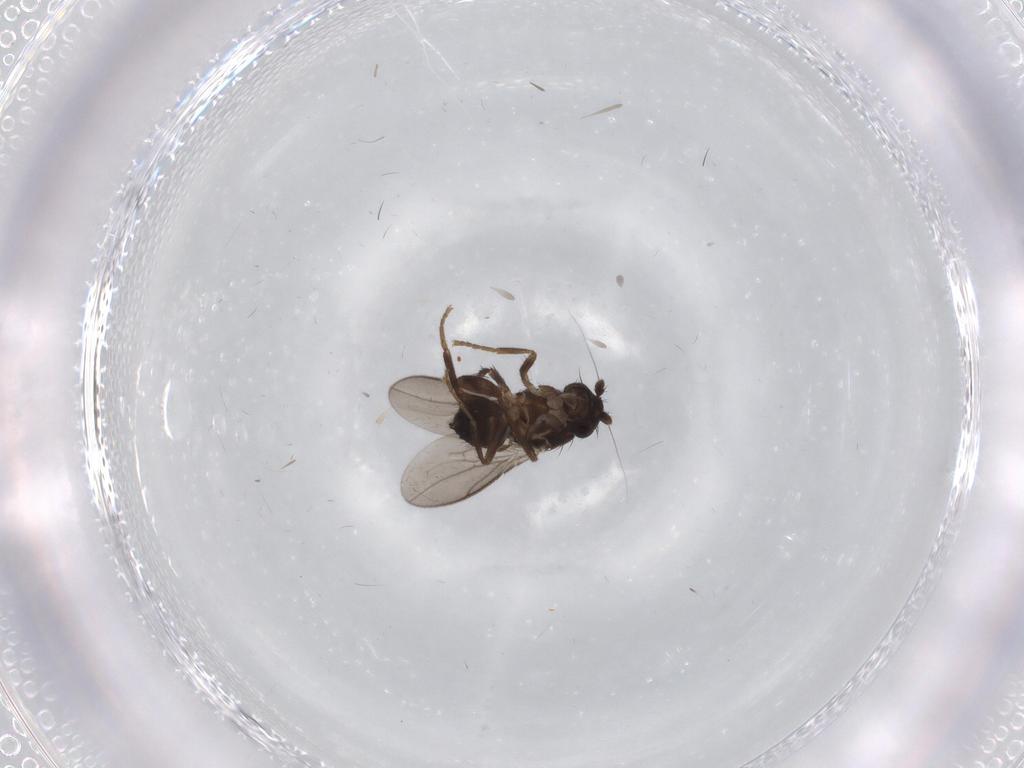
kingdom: Animalia
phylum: Arthropoda
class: Insecta
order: Diptera
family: Sphaeroceridae
